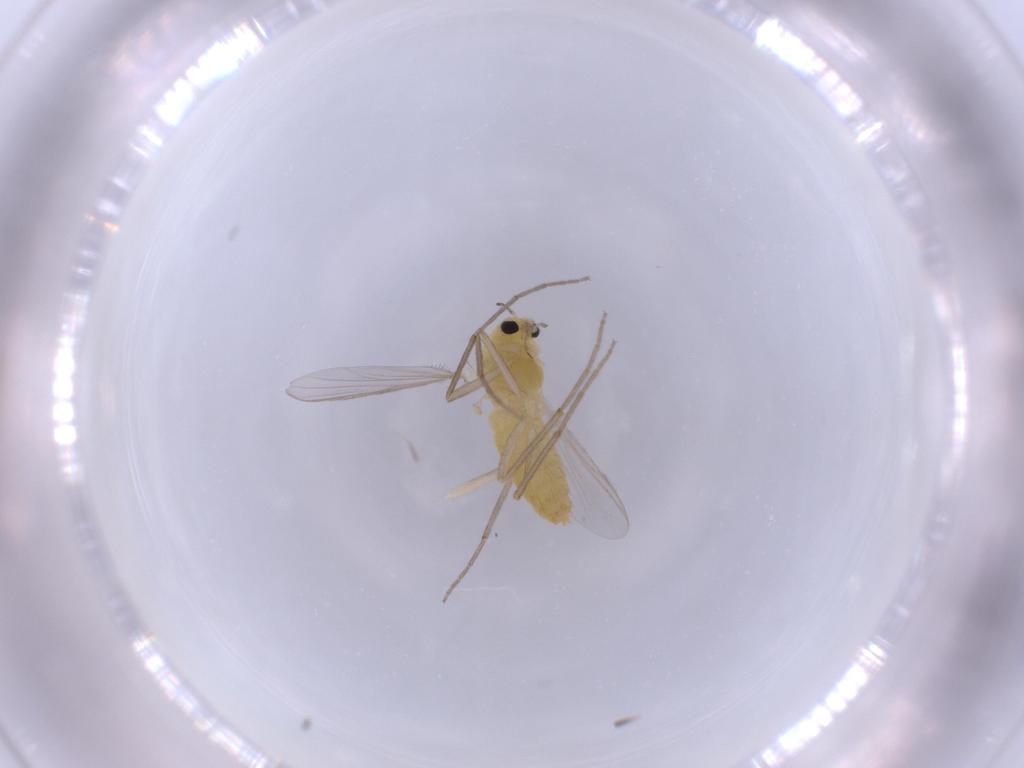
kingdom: Animalia
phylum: Arthropoda
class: Insecta
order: Diptera
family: Chironomidae
